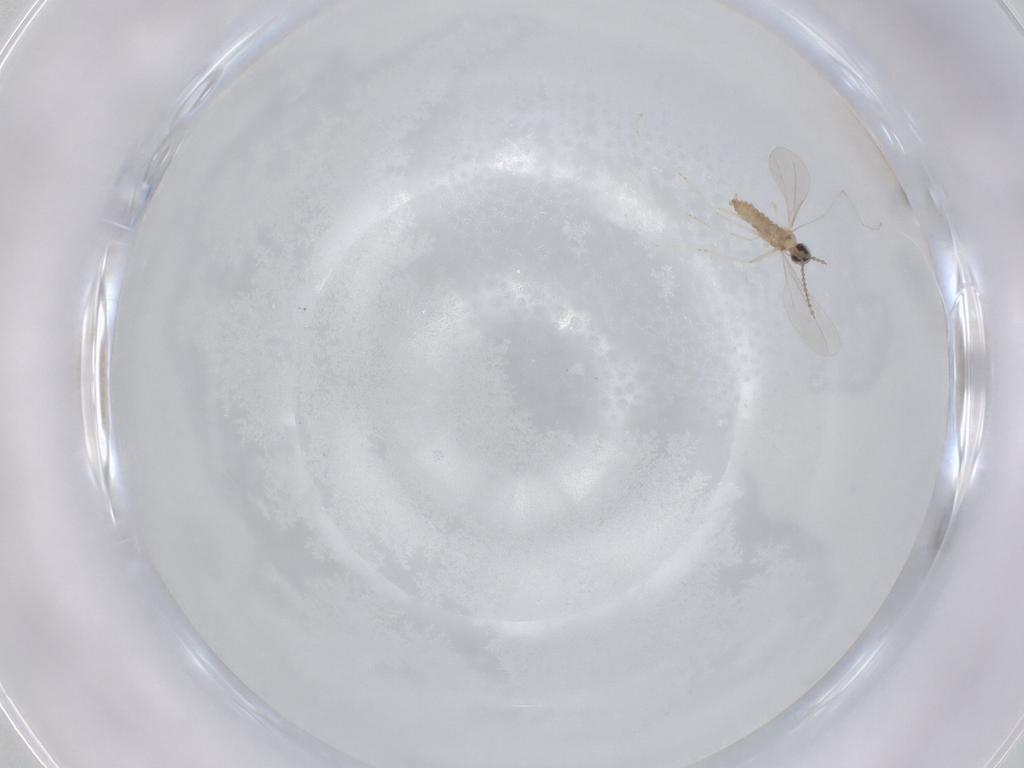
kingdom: Animalia
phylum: Arthropoda
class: Insecta
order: Diptera
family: Cecidomyiidae
